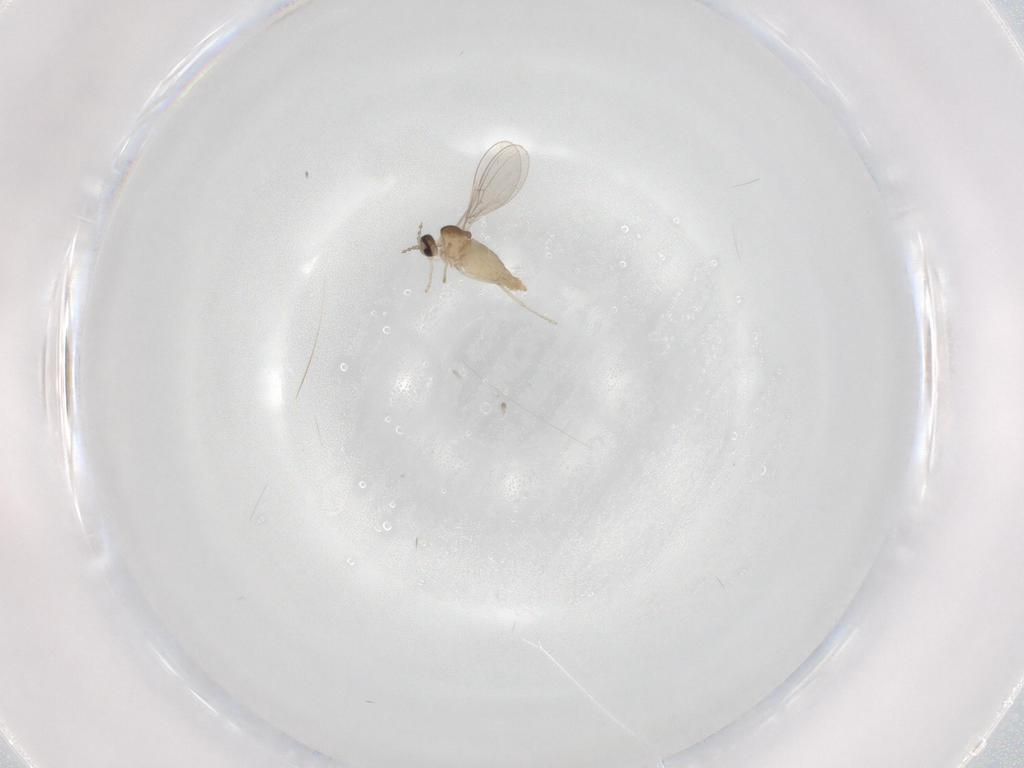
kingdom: Animalia
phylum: Arthropoda
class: Insecta
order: Diptera
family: Cecidomyiidae
